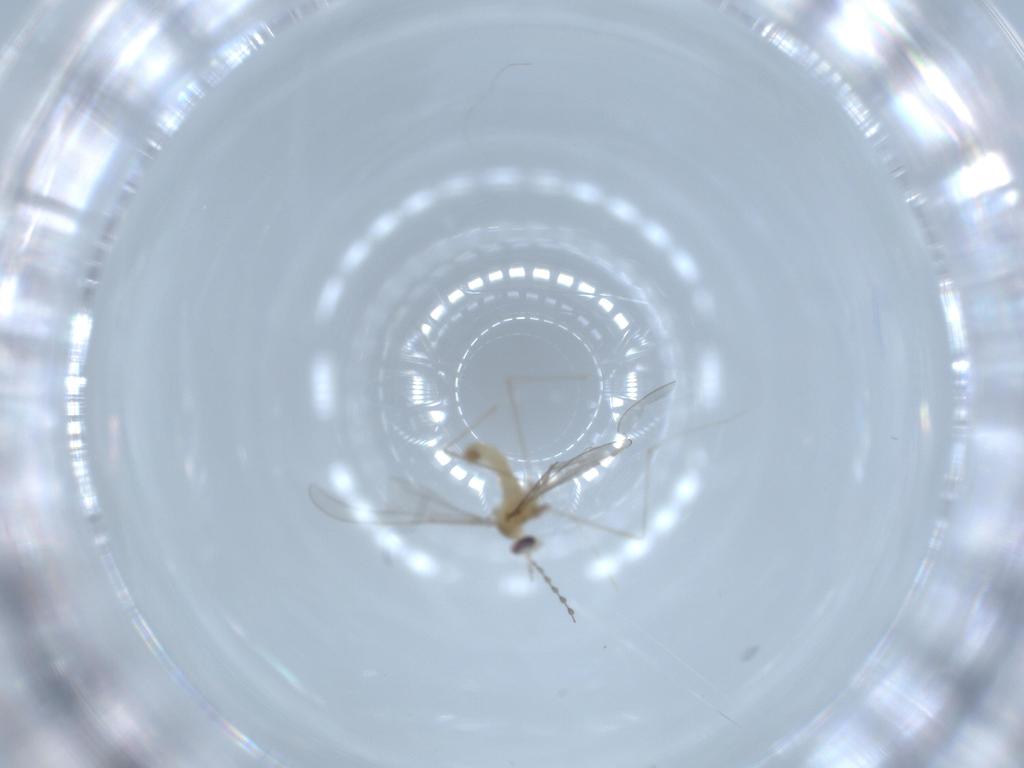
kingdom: Animalia
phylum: Arthropoda
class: Insecta
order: Diptera
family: Cecidomyiidae
